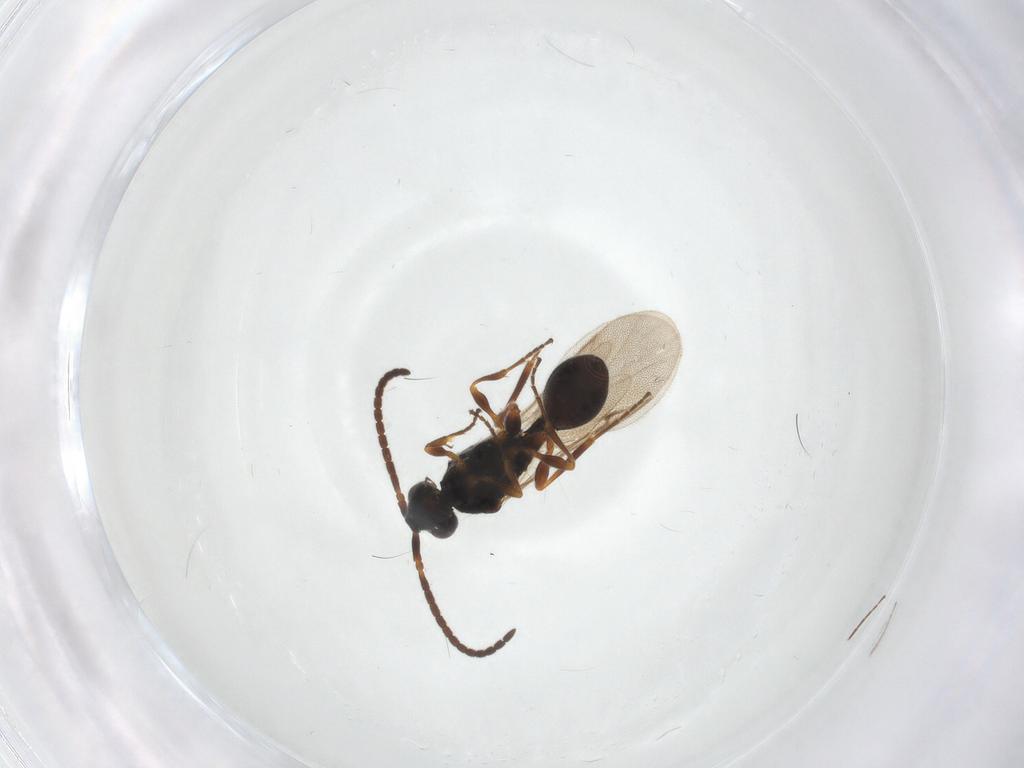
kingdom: Animalia
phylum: Arthropoda
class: Insecta
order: Hymenoptera
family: Diapriidae
